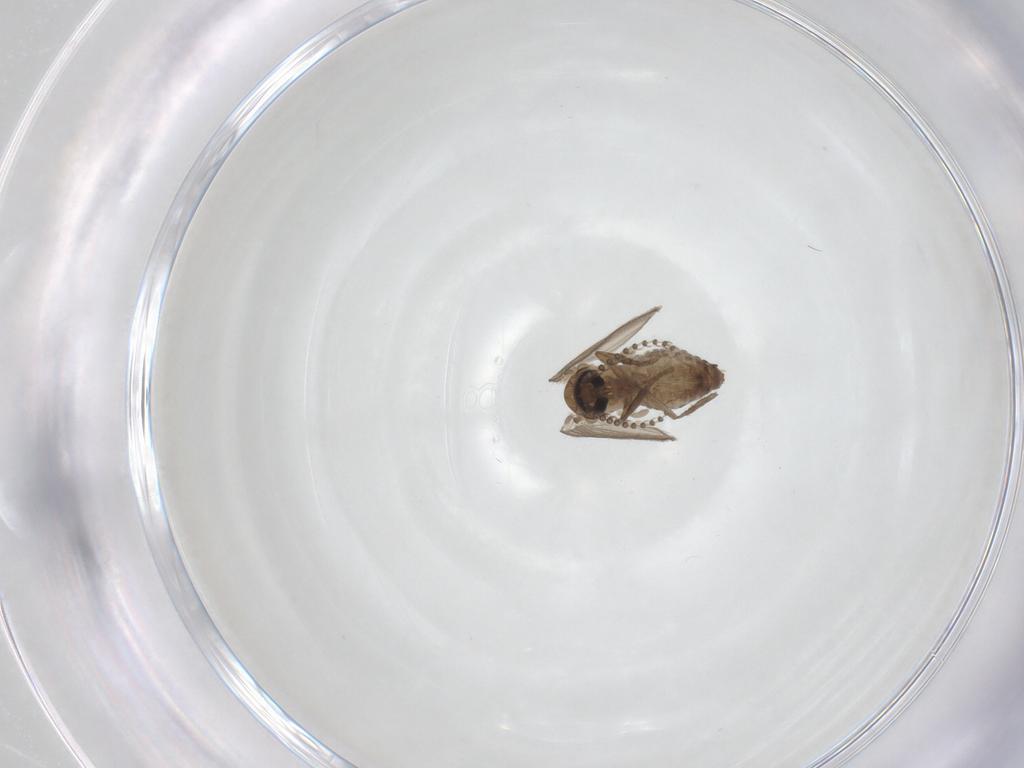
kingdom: Animalia
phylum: Arthropoda
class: Insecta
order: Diptera
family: Psychodidae
